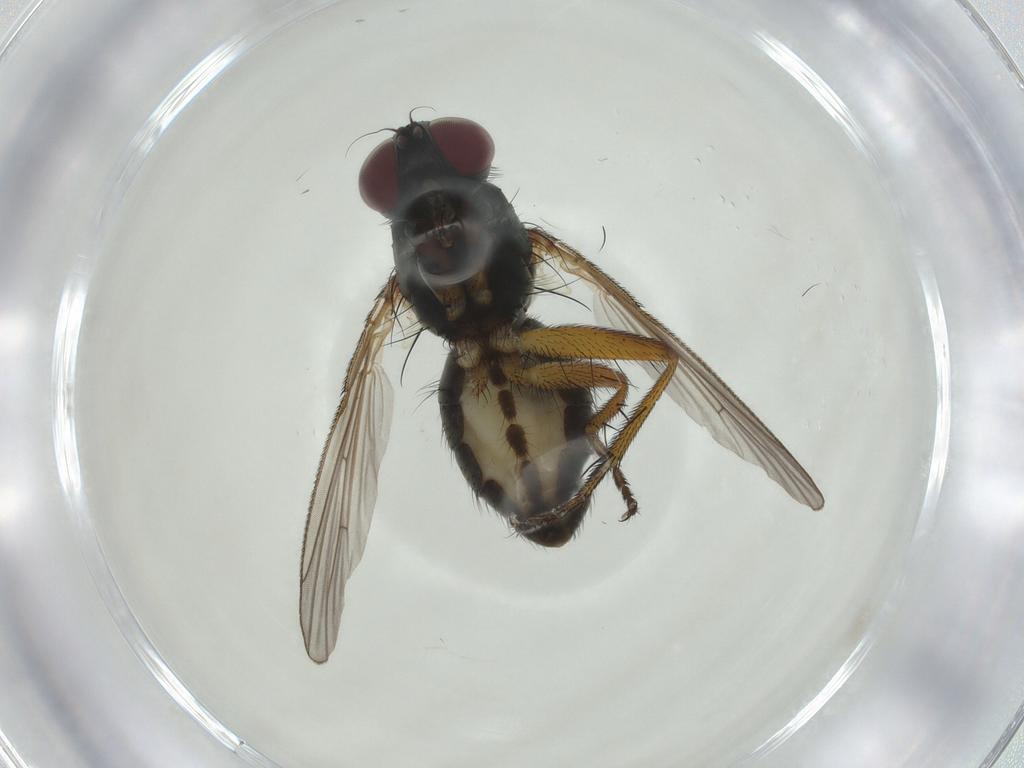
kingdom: Animalia
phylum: Arthropoda
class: Insecta
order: Diptera
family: Muscidae
